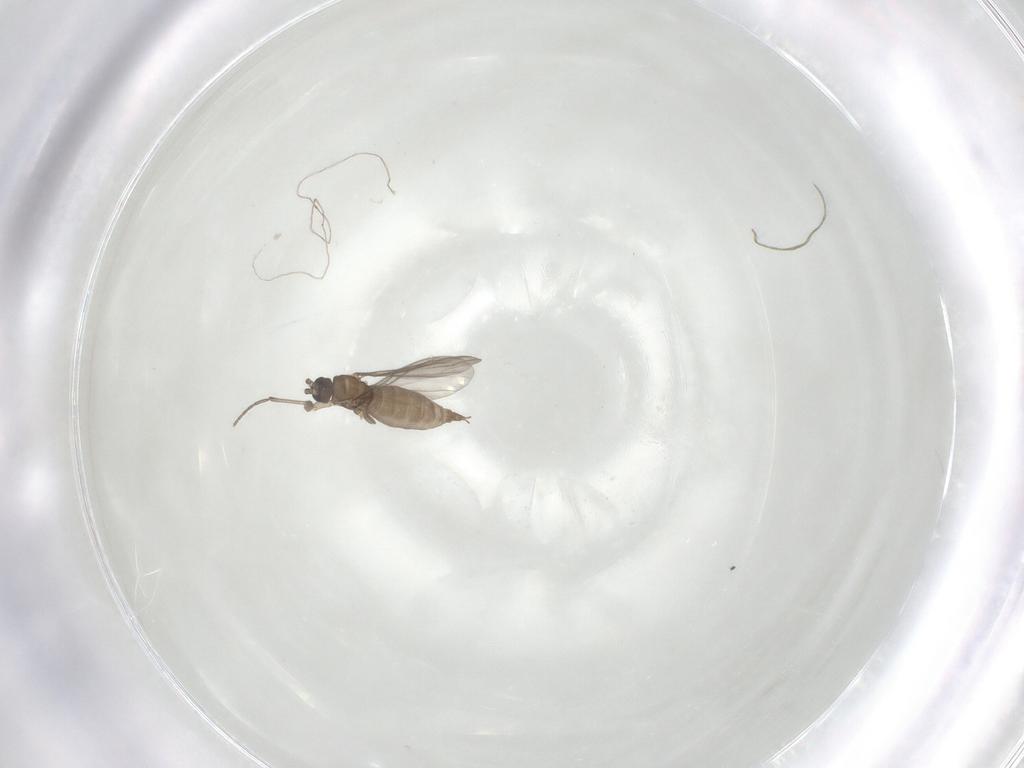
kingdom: Animalia
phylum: Arthropoda
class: Insecta
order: Diptera
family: Sciaridae
